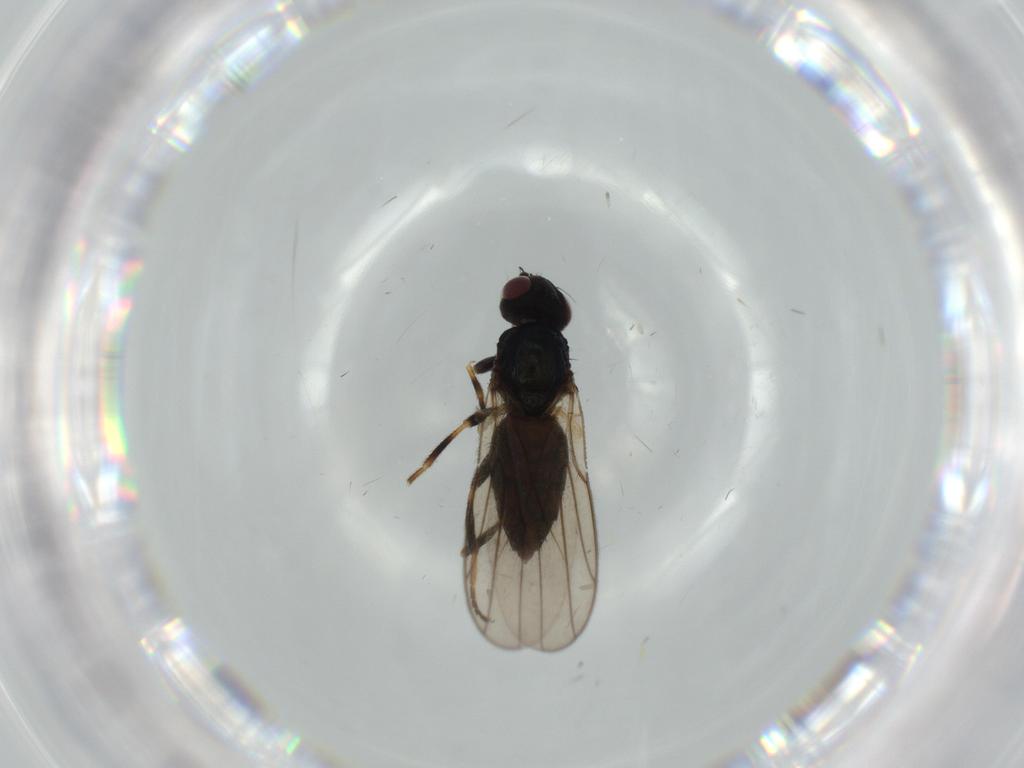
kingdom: Animalia
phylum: Arthropoda
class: Insecta
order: Diptera
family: Chloropidae
